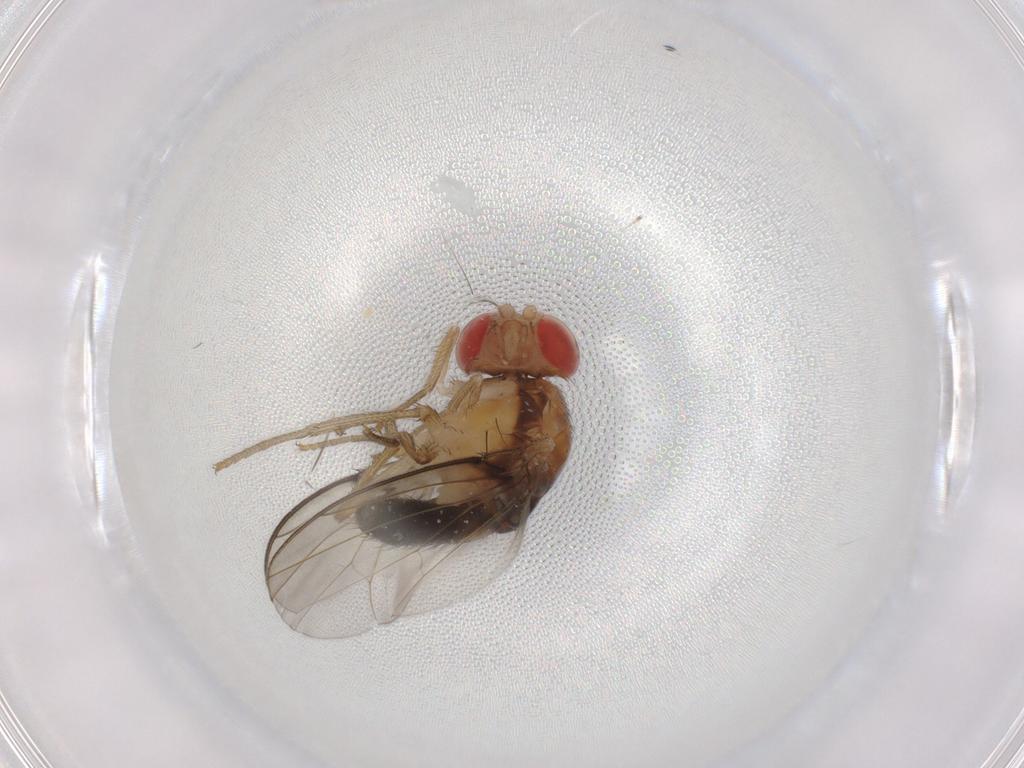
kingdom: Animalia
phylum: Arthropoda
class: Insecta
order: Diptera
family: Drosophilidae
